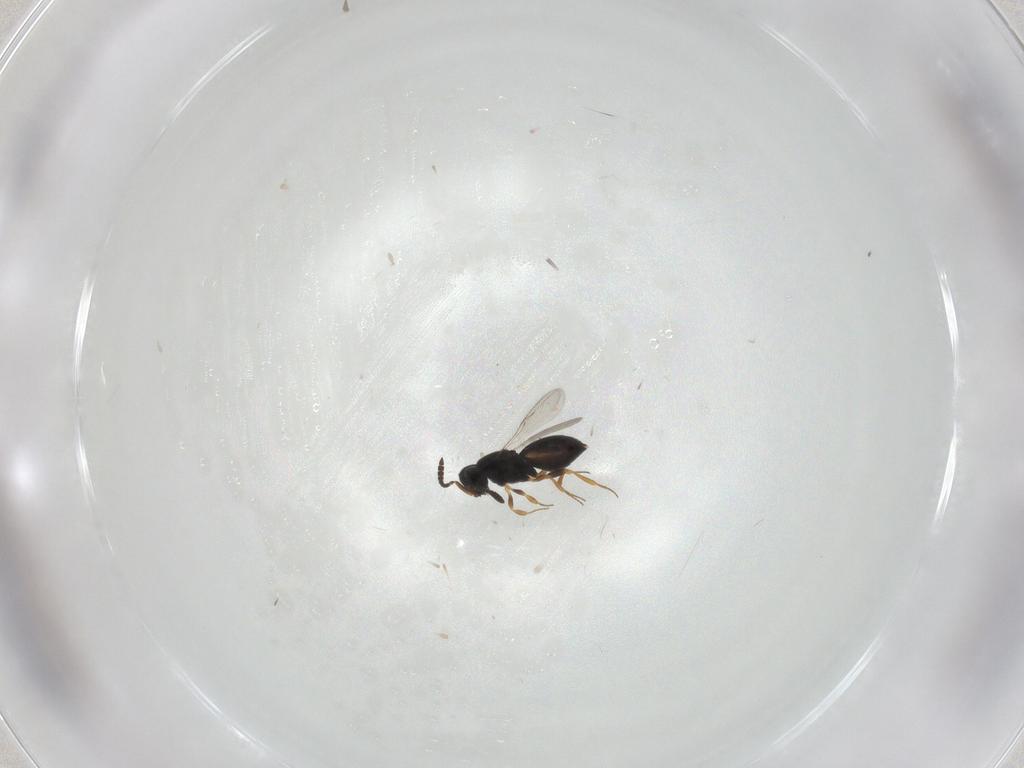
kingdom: Animalia
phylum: Arthropoda
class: Insecta
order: Hymenoptera
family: Scelionidae
